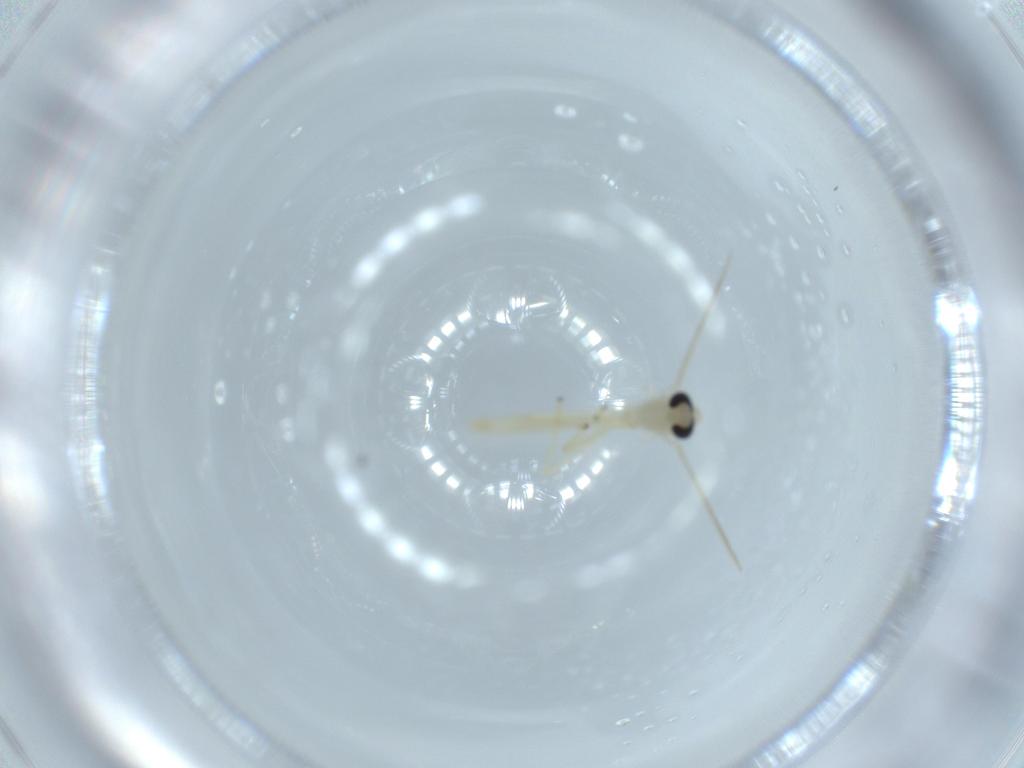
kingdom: Animalia
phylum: Arthropoda
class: Insecta
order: Diptera
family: Chironomidae
